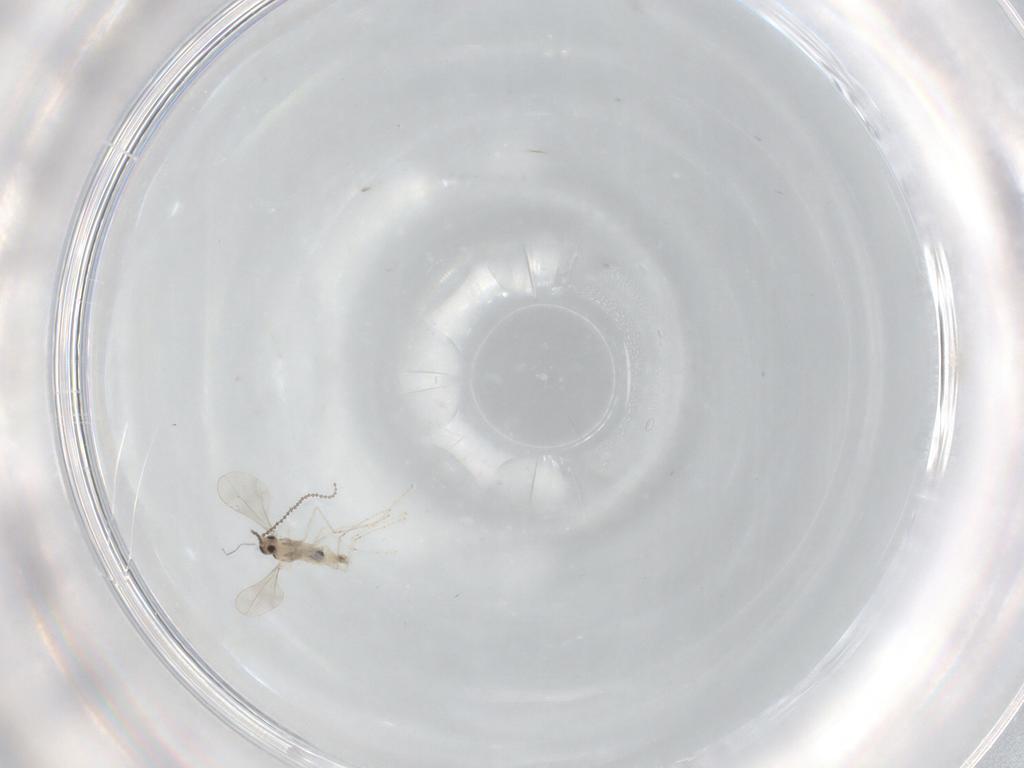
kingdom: Animalia
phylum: Arthropoda
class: Insecta
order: Diptera
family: Cecidomyiidae
